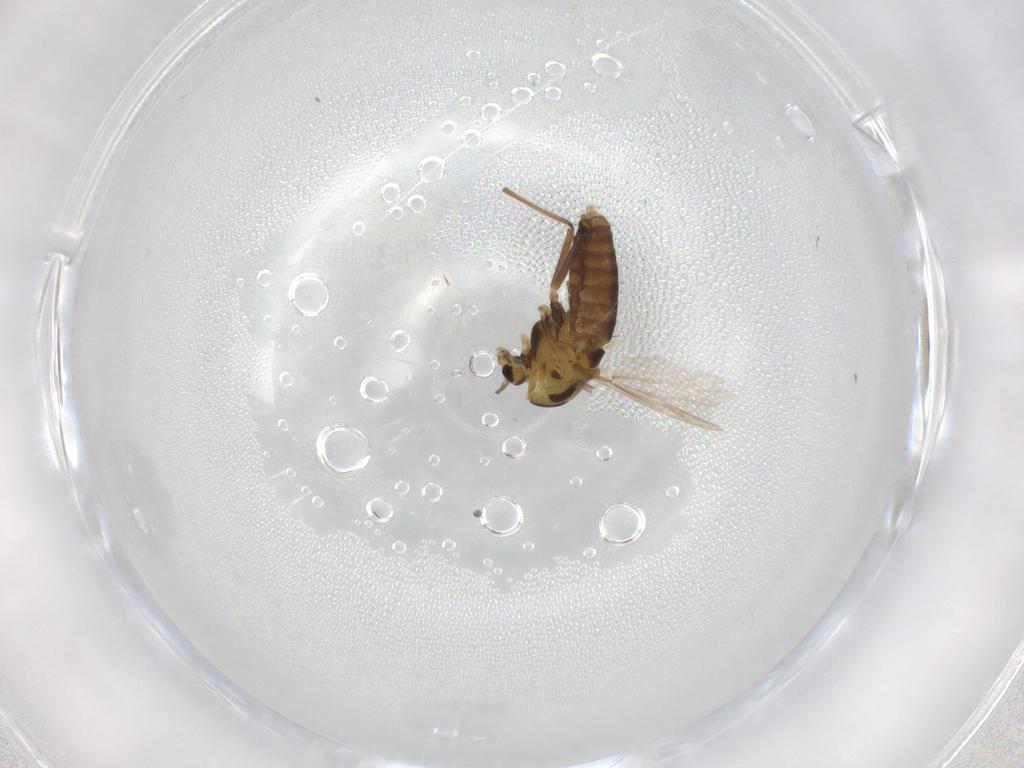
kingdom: Animalia
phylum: Arthropoda
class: Insecta
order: Diptera
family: Chironomidae
